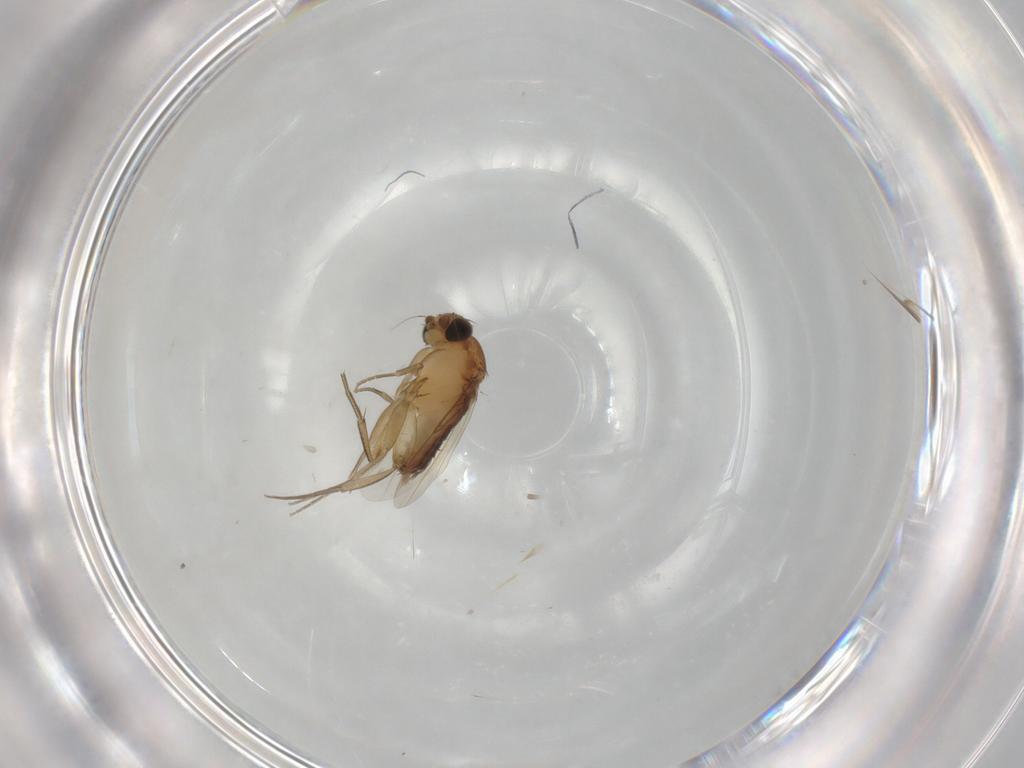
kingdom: Animalia
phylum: Arthropoda
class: Insecta
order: Diptera
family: Phoridae
